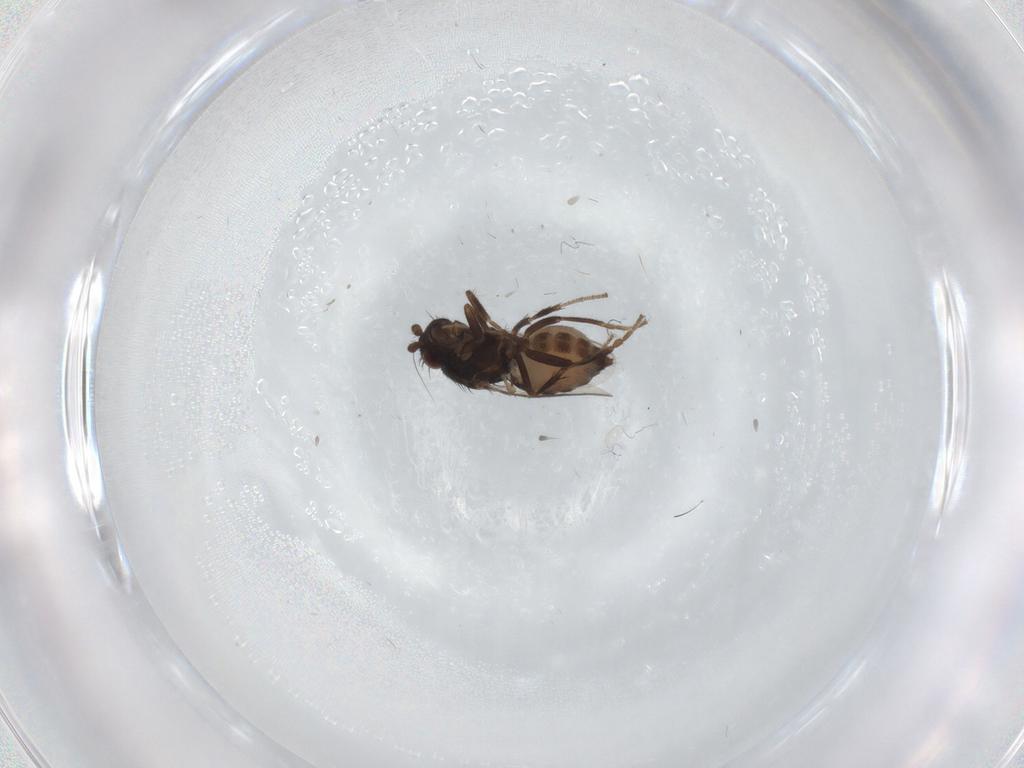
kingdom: Animalia
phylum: Arthropoda
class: Insecta
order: Diptera
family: Sphaeroceridae
